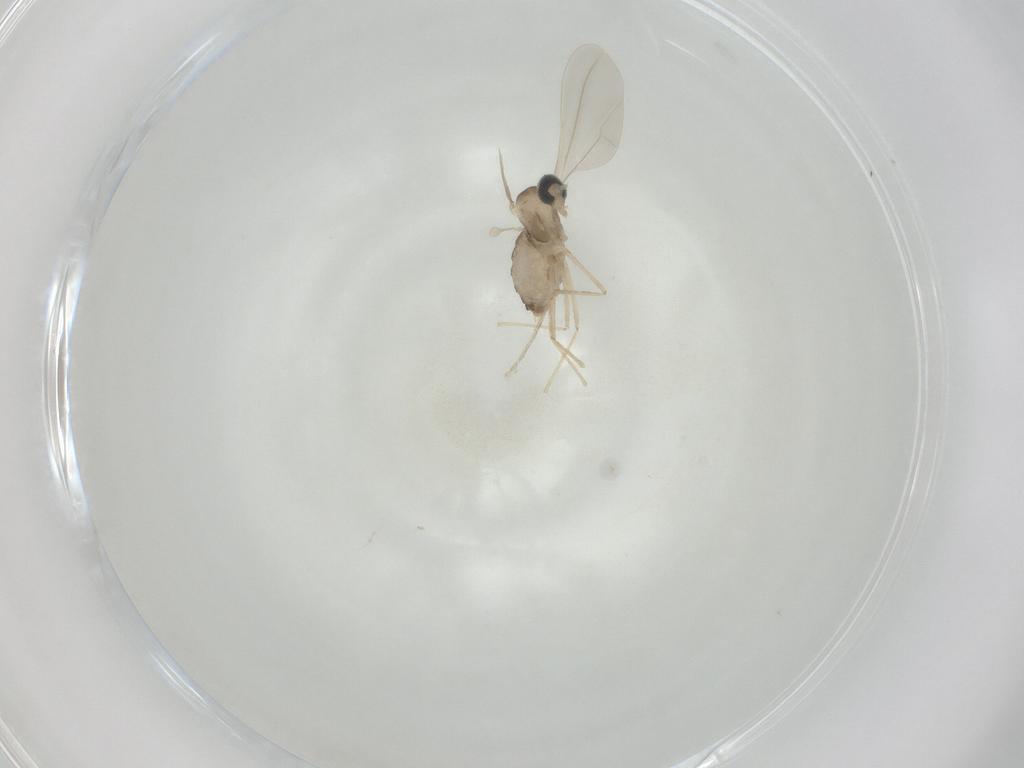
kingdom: Animalia
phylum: Arthropoda
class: Insecta
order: Diptera
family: Cecidomyiidae
